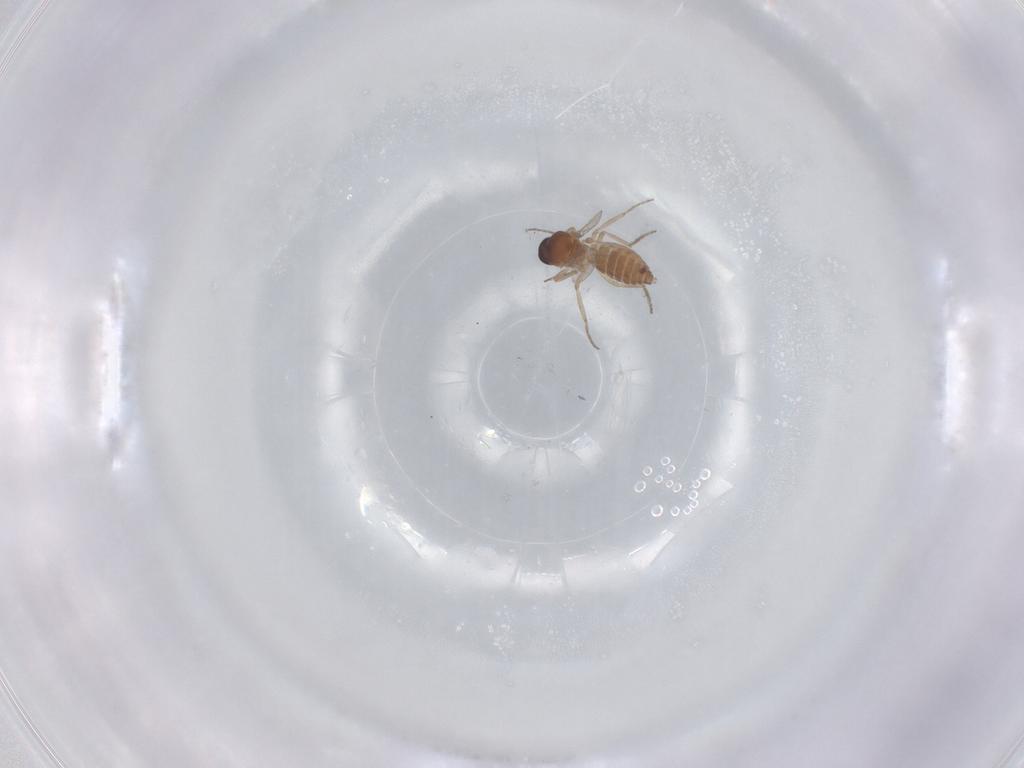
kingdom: Animalia
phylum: Arthropoda
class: Insecta
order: Diptera
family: Ceratopogonidae
